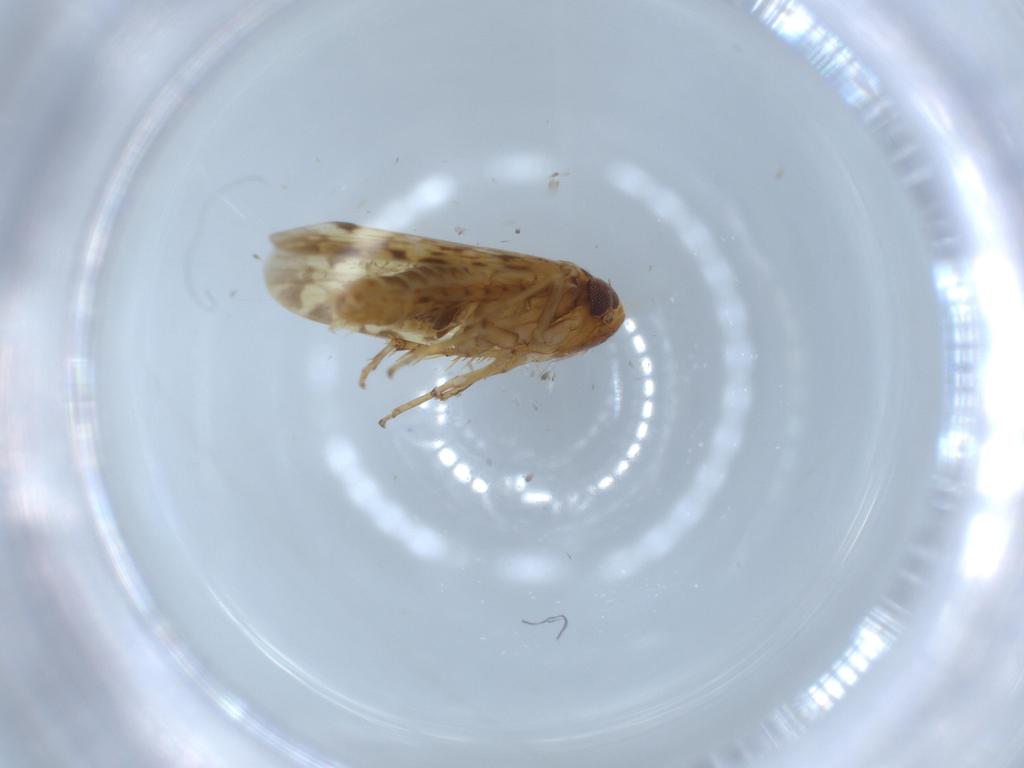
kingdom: Animalia
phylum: Arthropoda
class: Insecta
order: Hemiptera
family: Cicadellidae
